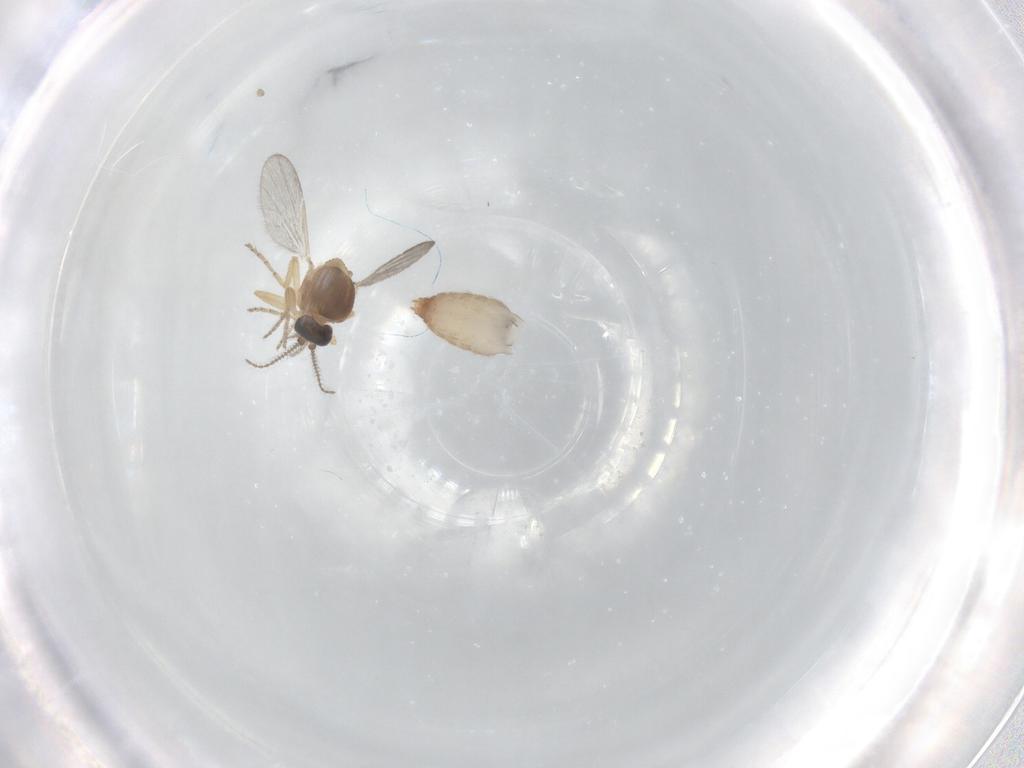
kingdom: Animalia
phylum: Arthropoda
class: Insecta
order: Diptera
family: Ceratopogonidae
